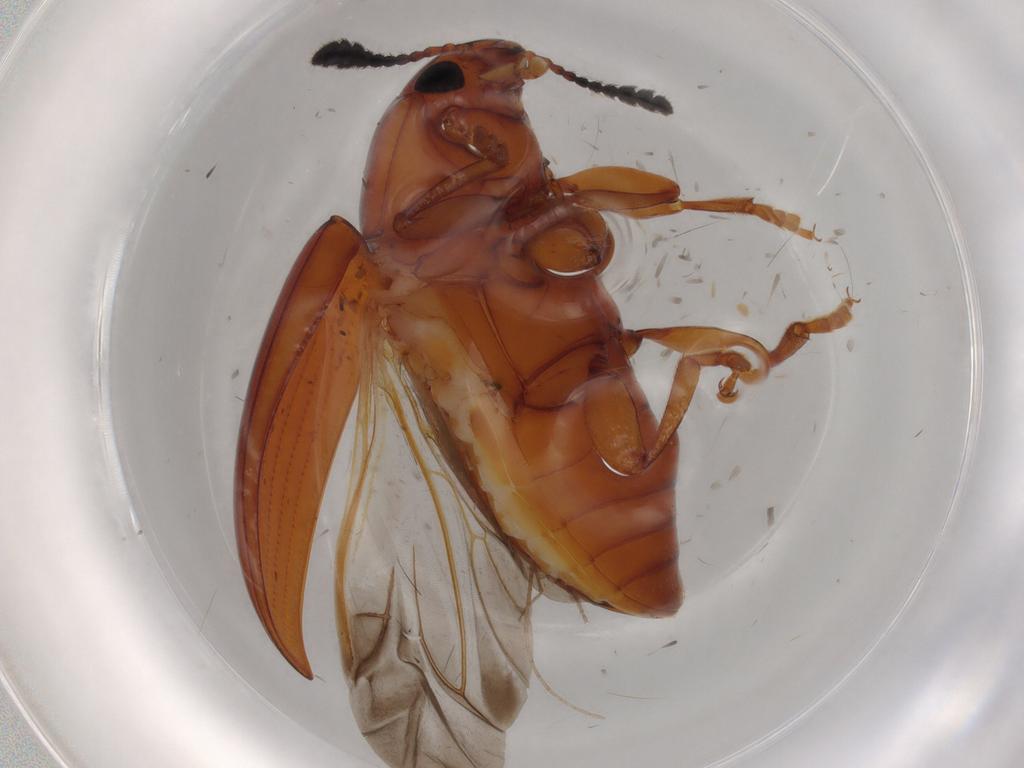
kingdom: Animalia
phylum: Arthropoda
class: Insecta
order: Coleoptera
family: Erotylidae
